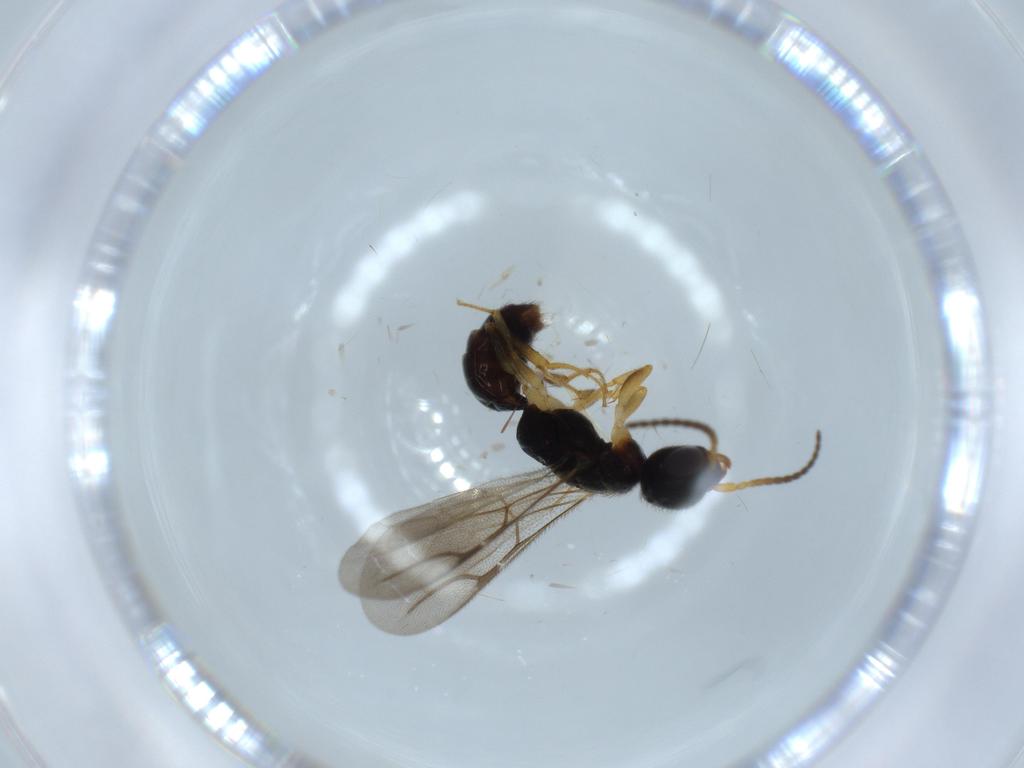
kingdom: Animalia
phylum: Arthropoda
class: Insecta
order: Hymenoptera
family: Bethylidae
